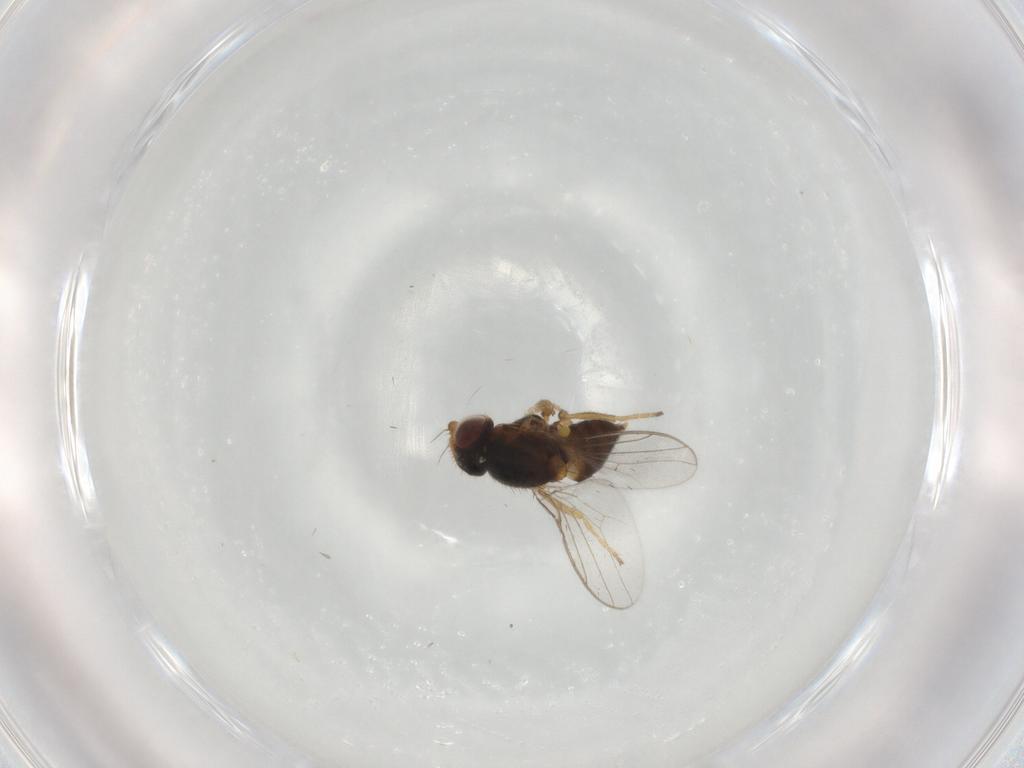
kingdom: Animalia
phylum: Arthropoda
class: Insecta
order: Diptera
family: Chloropidae
